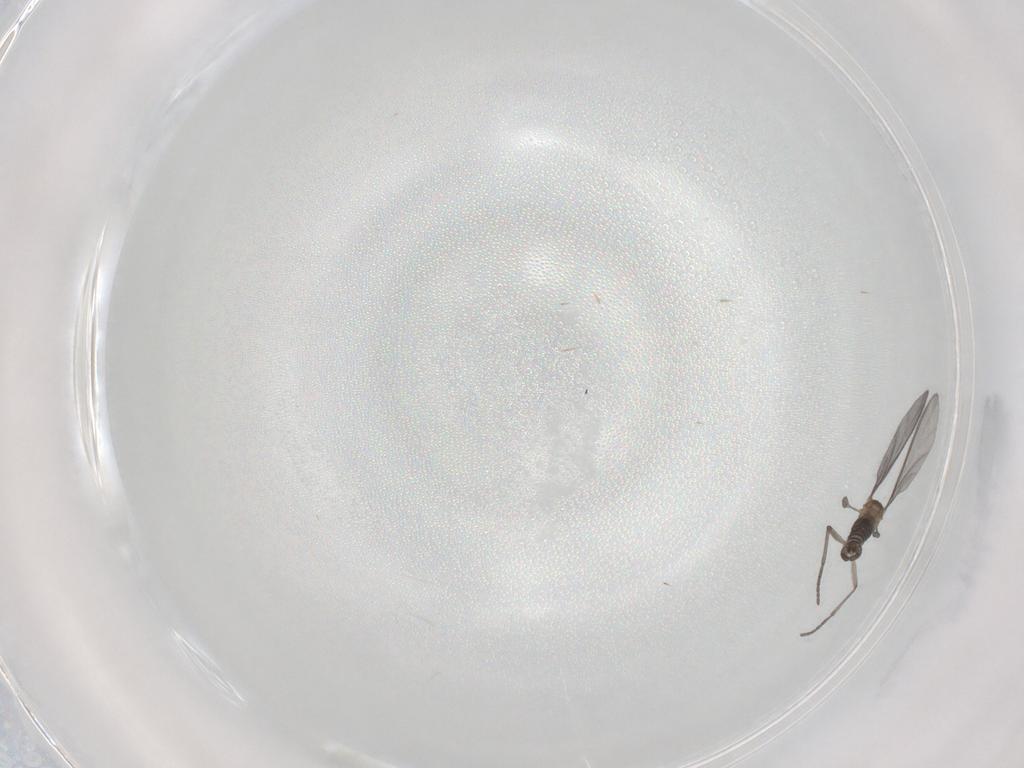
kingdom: Animalia
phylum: Arthropoda
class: Insecta
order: Diptera
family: Sciaridae
